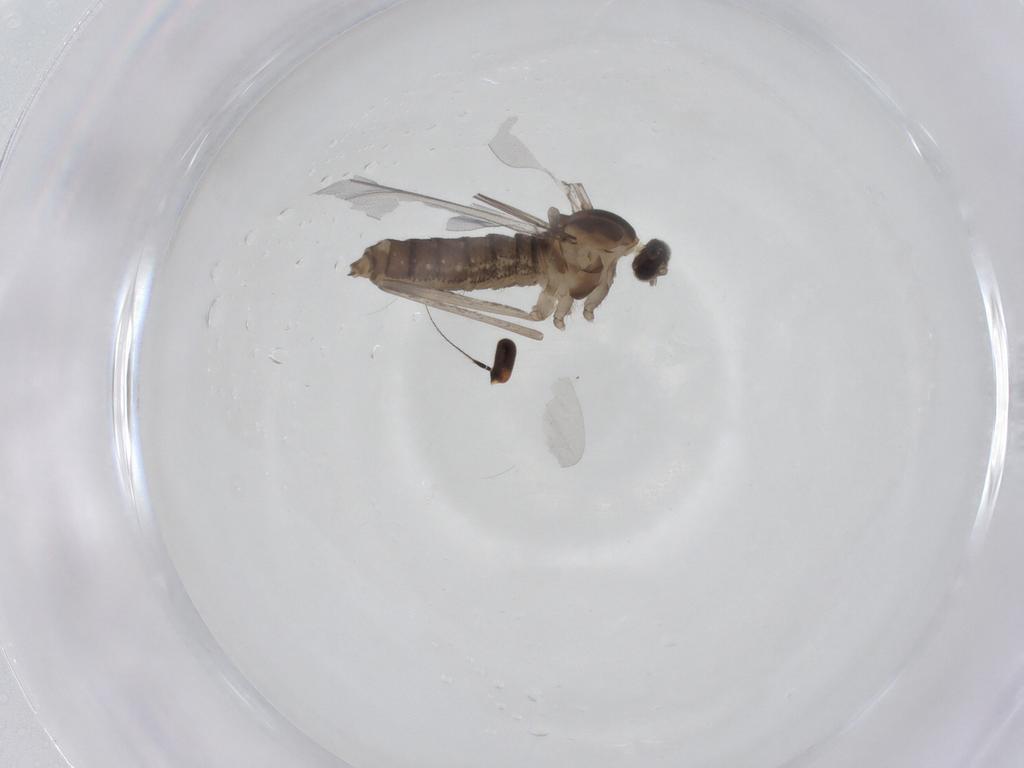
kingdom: Animalia
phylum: Arthropoda
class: Insecta
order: Diptera
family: Cecidomyiidae
